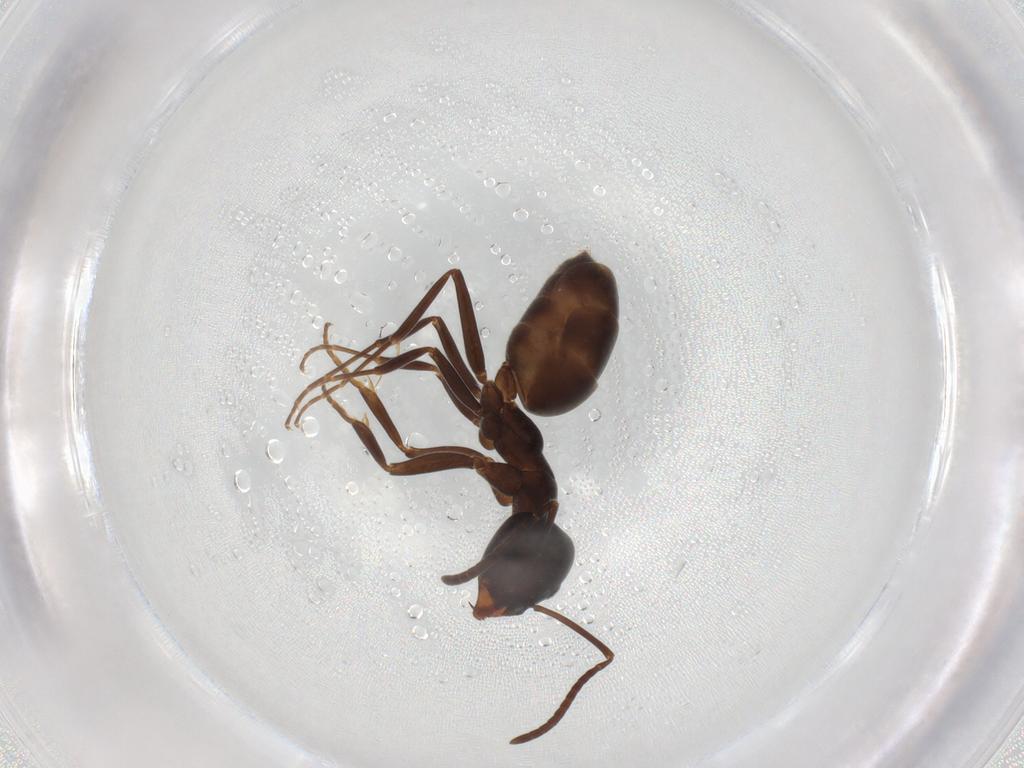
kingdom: Animalia
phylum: Arthropoda
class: Insecta
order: Hymenoptera
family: Formicidae
